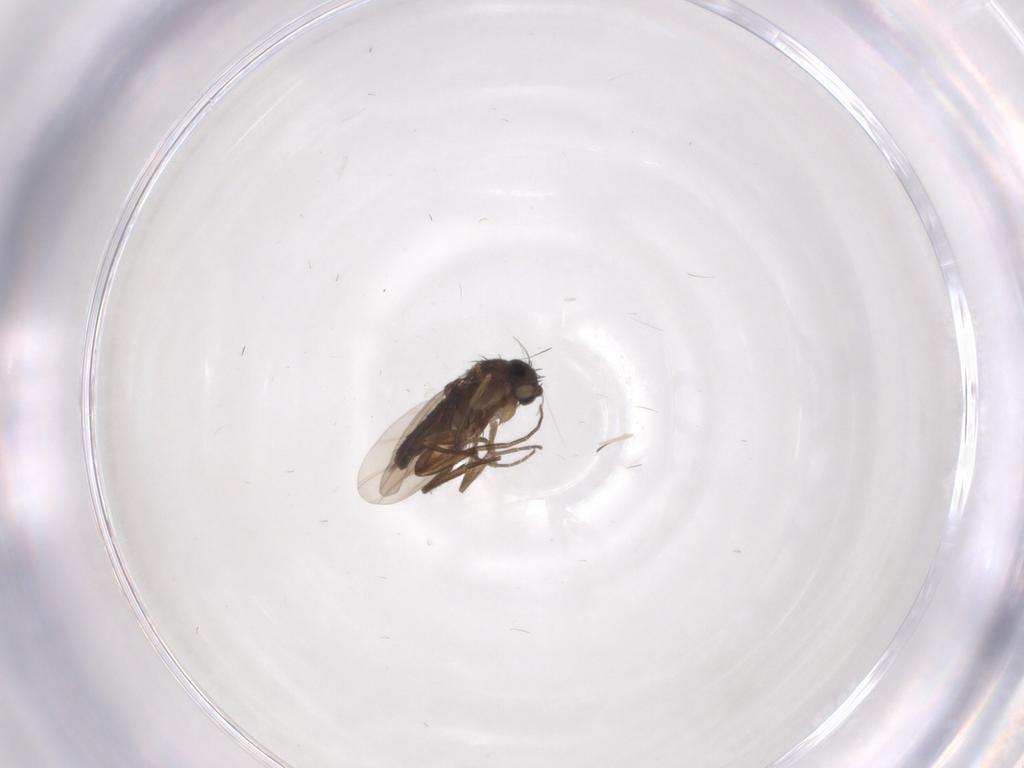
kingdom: Animalia
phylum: Arthropoda
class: Insecta
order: Diptera
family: Phoridae
